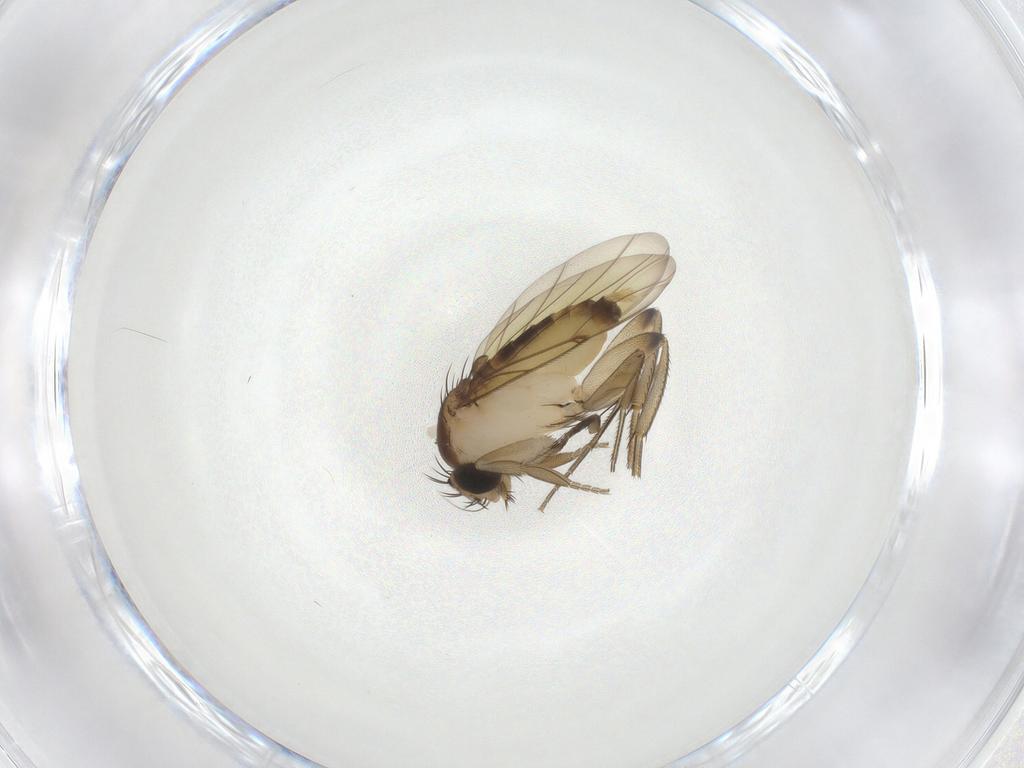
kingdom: Animalia
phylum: Arthropoda
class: Insecta
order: Diptera
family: Phoridae
